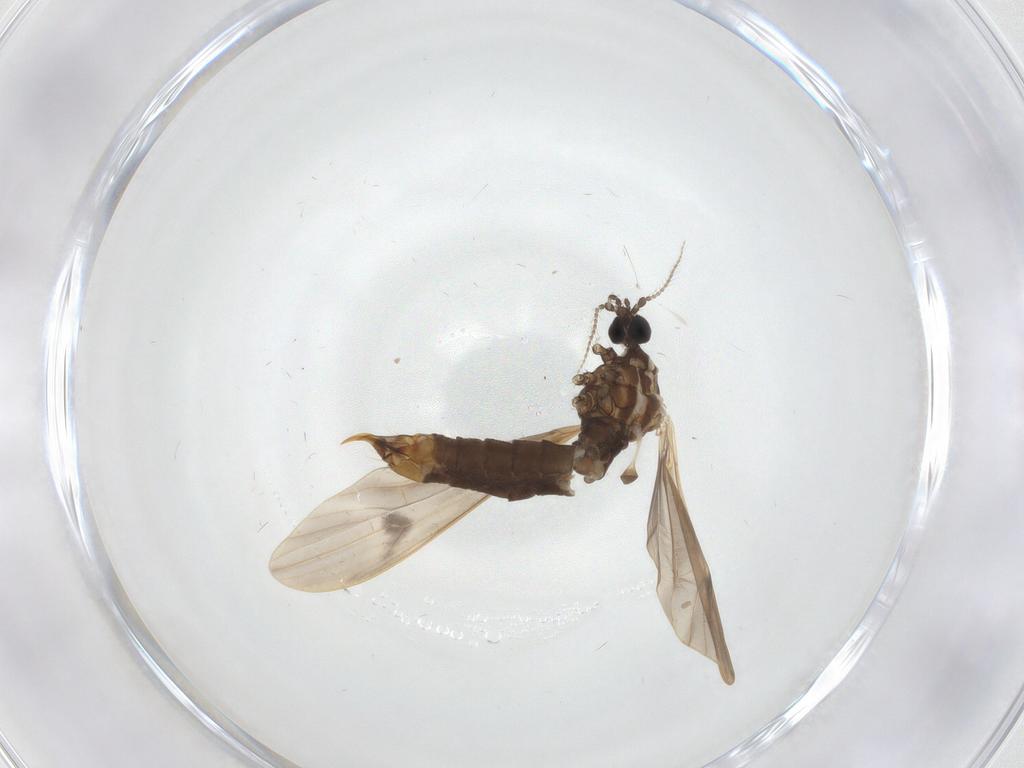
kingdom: Animalia
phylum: Arthropoda
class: Insecta
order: Diptera
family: Limoniidae
